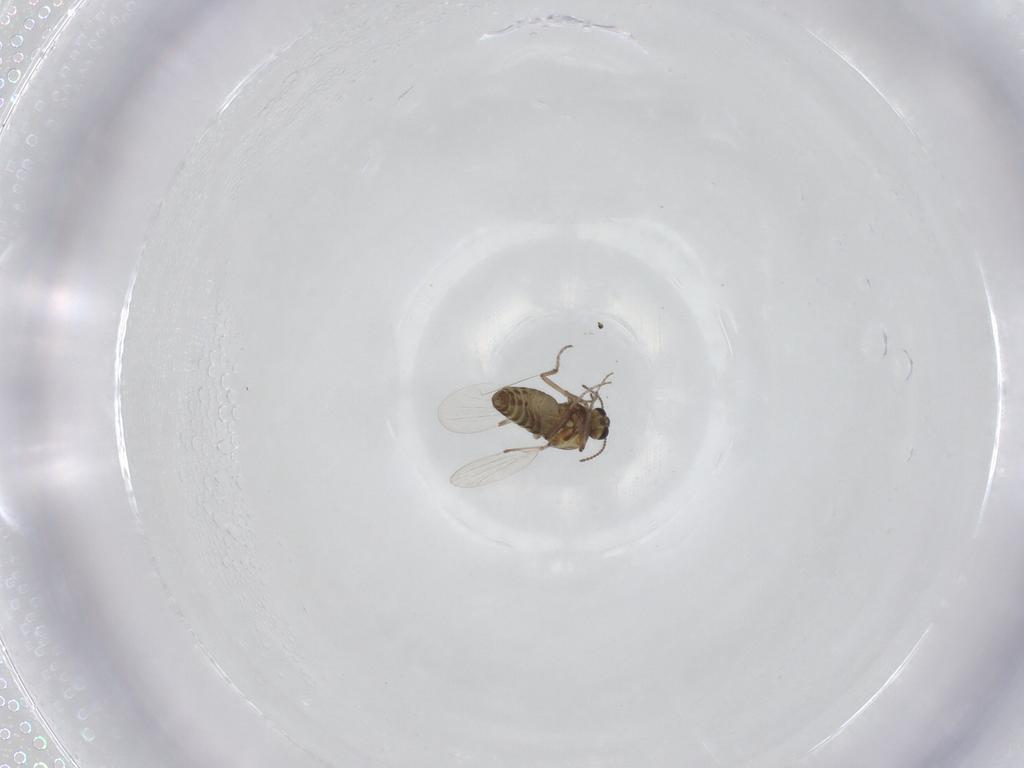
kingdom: Animalia
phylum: Arthropoda
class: Insecta
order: Diptera
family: Ceratopogonidae
